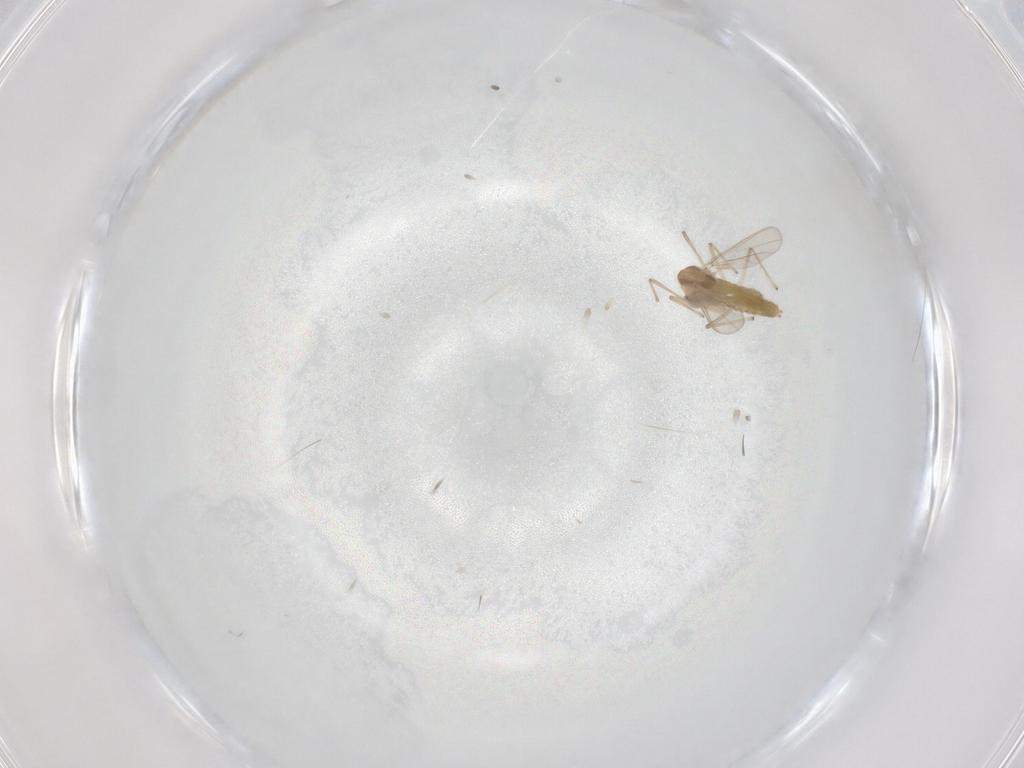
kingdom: Animalia
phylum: Arthropoda
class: Insecta
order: Diptera
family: Chironomidae
